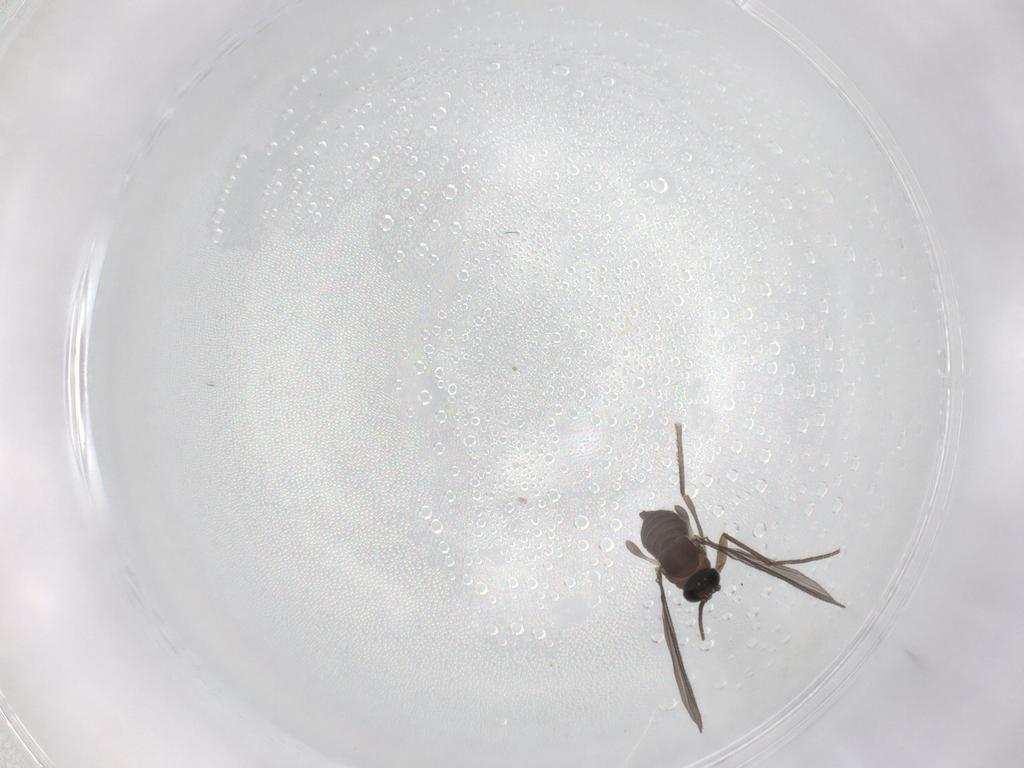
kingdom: Animalia
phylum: Arthropoda
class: Insecta
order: Diptera
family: Sciaridae
